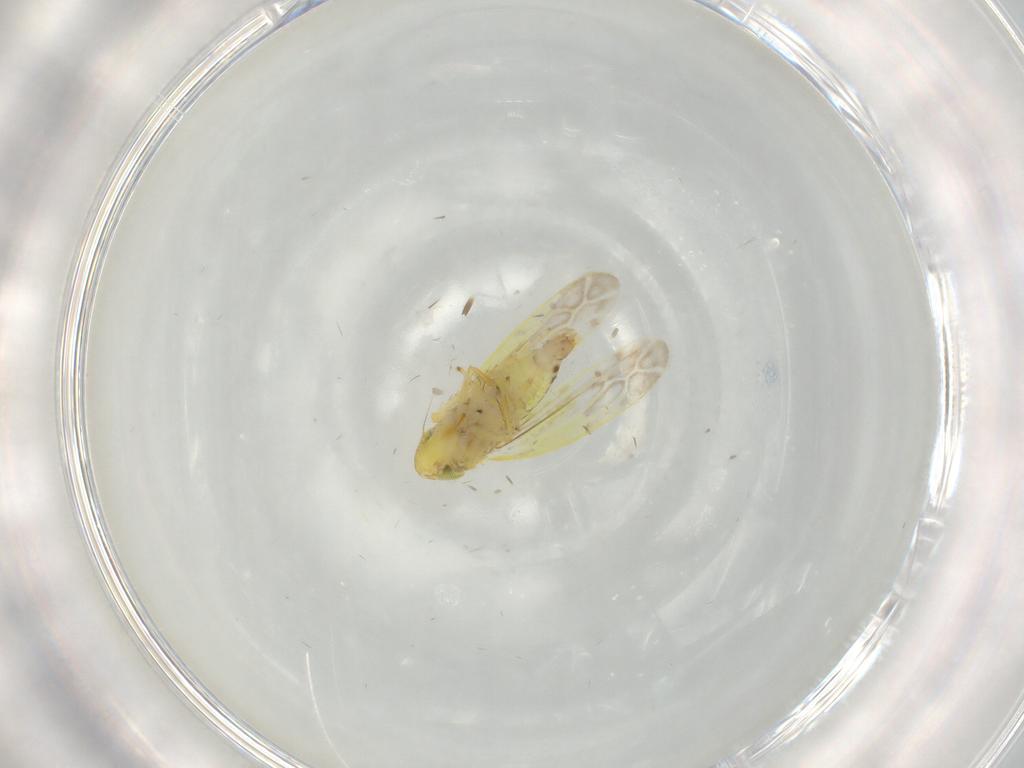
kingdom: Animalia
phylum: Arthropoda
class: Insecta
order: Hemiptera
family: Cicadellidae
